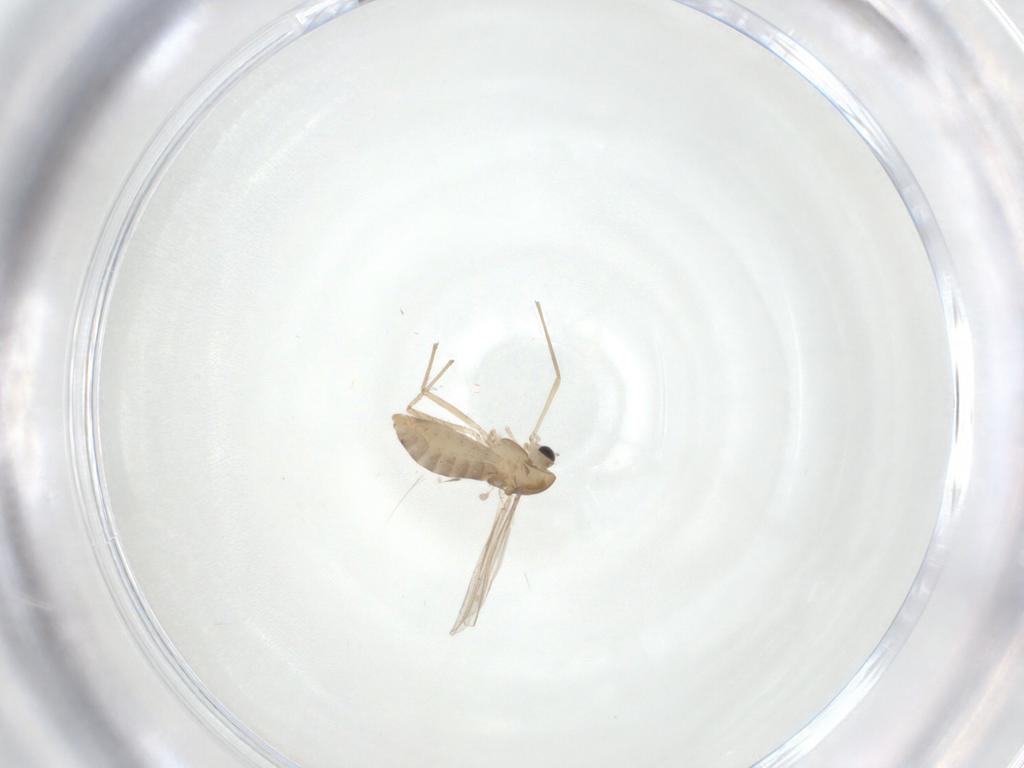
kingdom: Animalia
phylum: Arthropoda
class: Insecta
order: Diptera
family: Chironomidae
